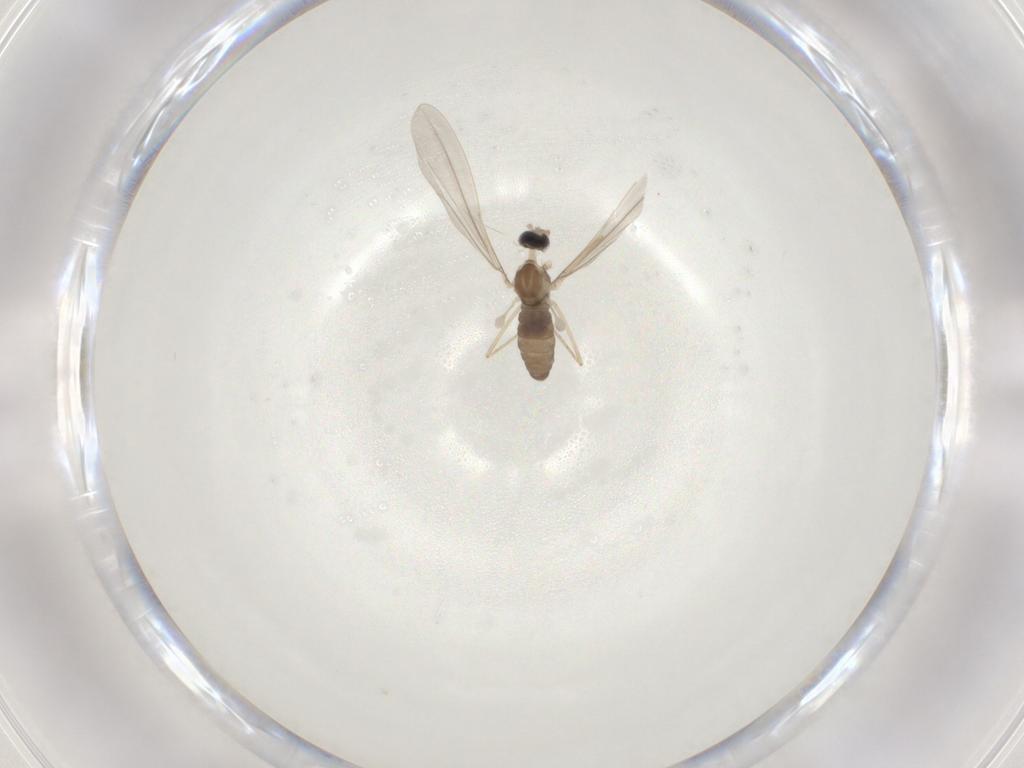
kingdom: Animalia
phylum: Arthropoda
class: Insecta
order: Diptera
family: Cecidomyiidae
